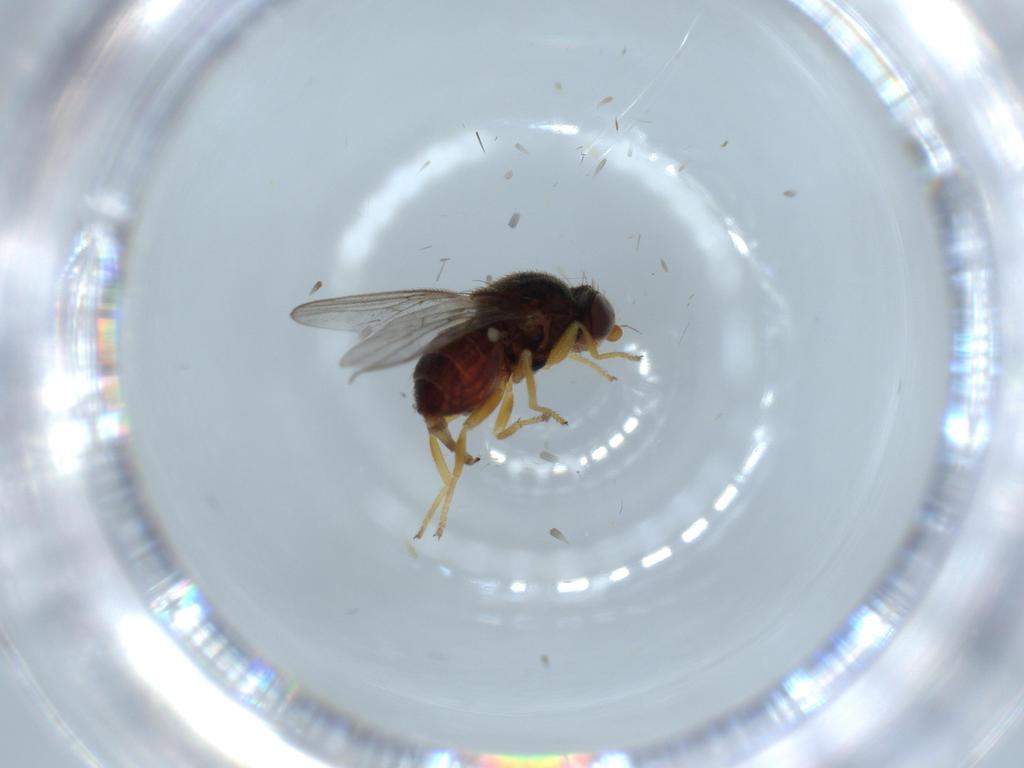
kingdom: Animalia
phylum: Arthropoda
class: Insecta
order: Diptera
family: Chloropidae
